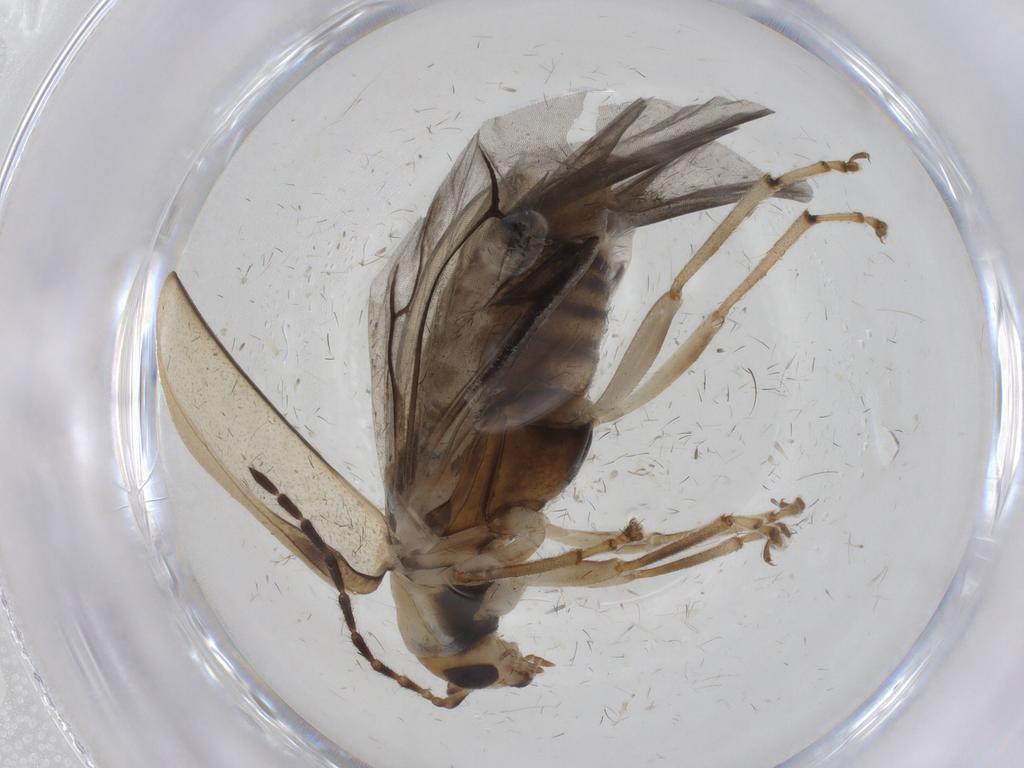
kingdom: Animalia
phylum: Arthropoda
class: Insecta
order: Coleoptera
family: Chrysomelidae
